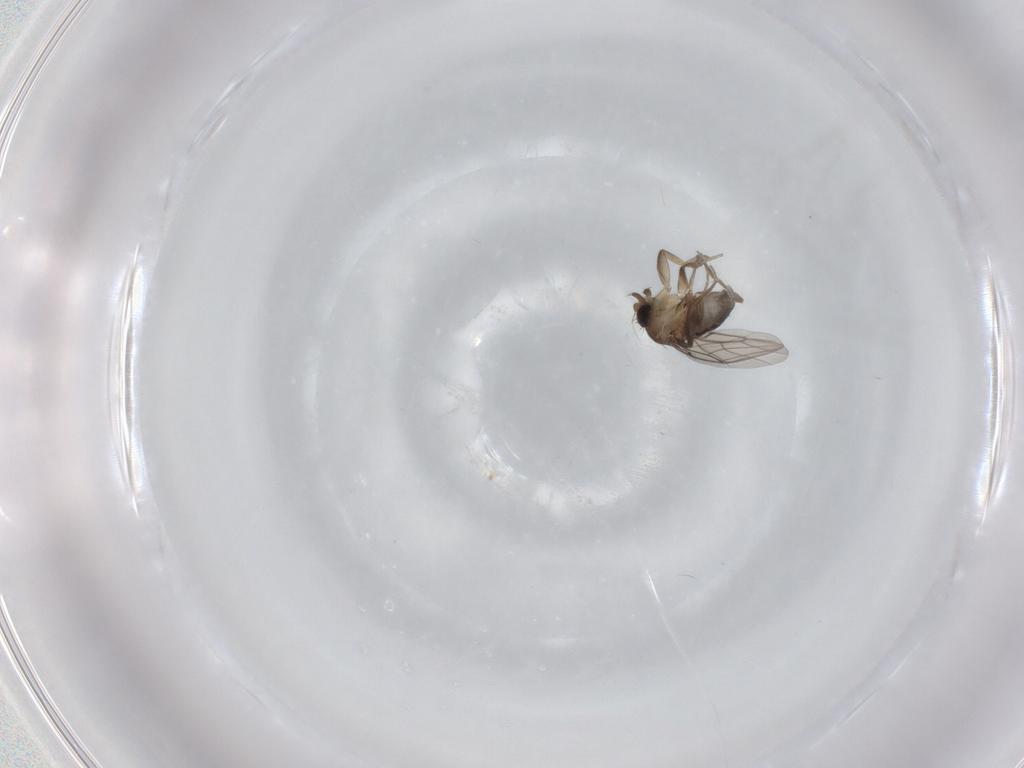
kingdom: Animalia
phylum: Arthropoda
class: Insecta
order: Diptera
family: Phoridae
